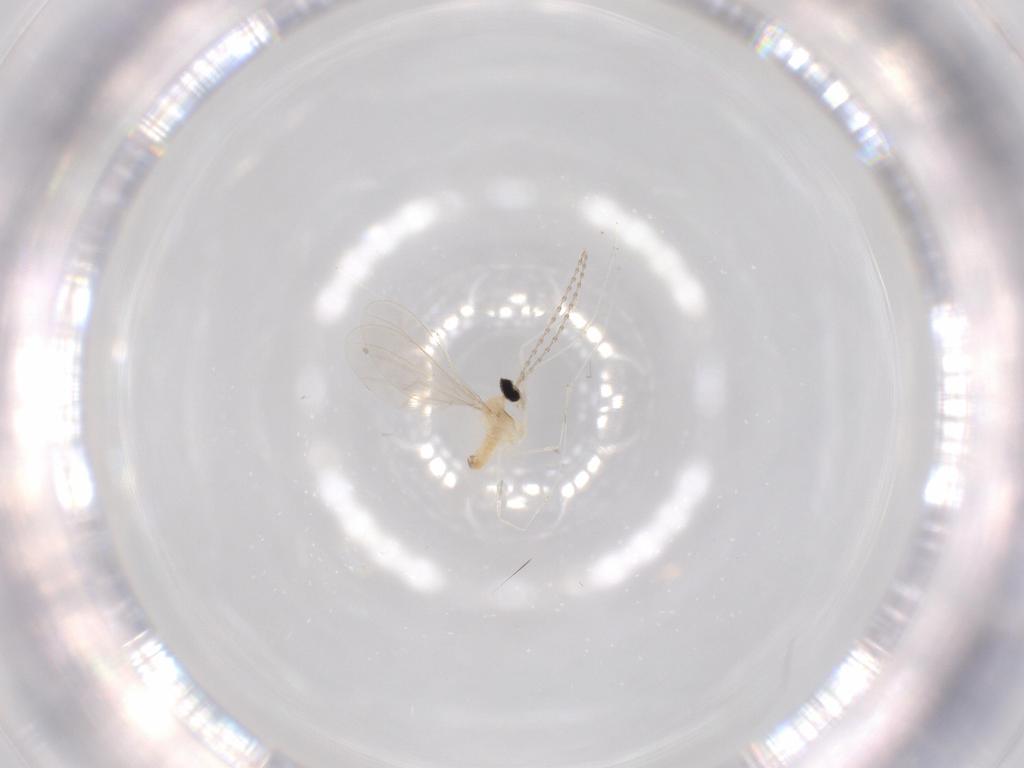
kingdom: Animalia
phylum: Arthropoda
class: Insecta
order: Diptera
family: Cecidomyiidae
